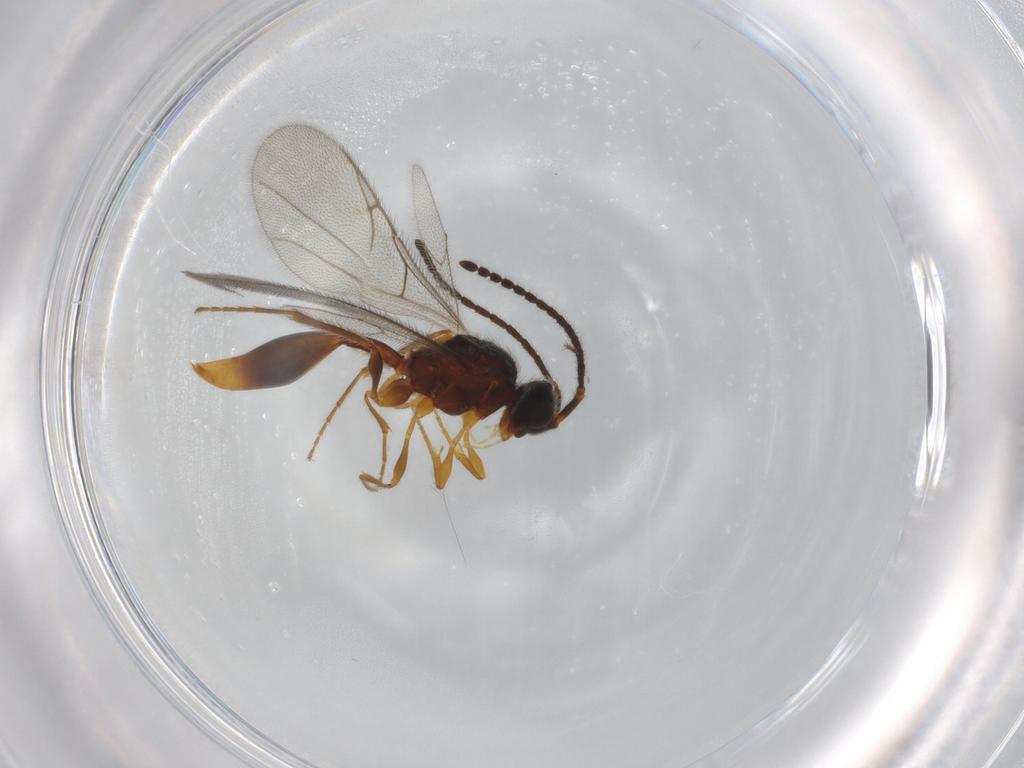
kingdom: Animalia
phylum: Arthropoda
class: Insecta
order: Hymenoptera
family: Diapriidae
